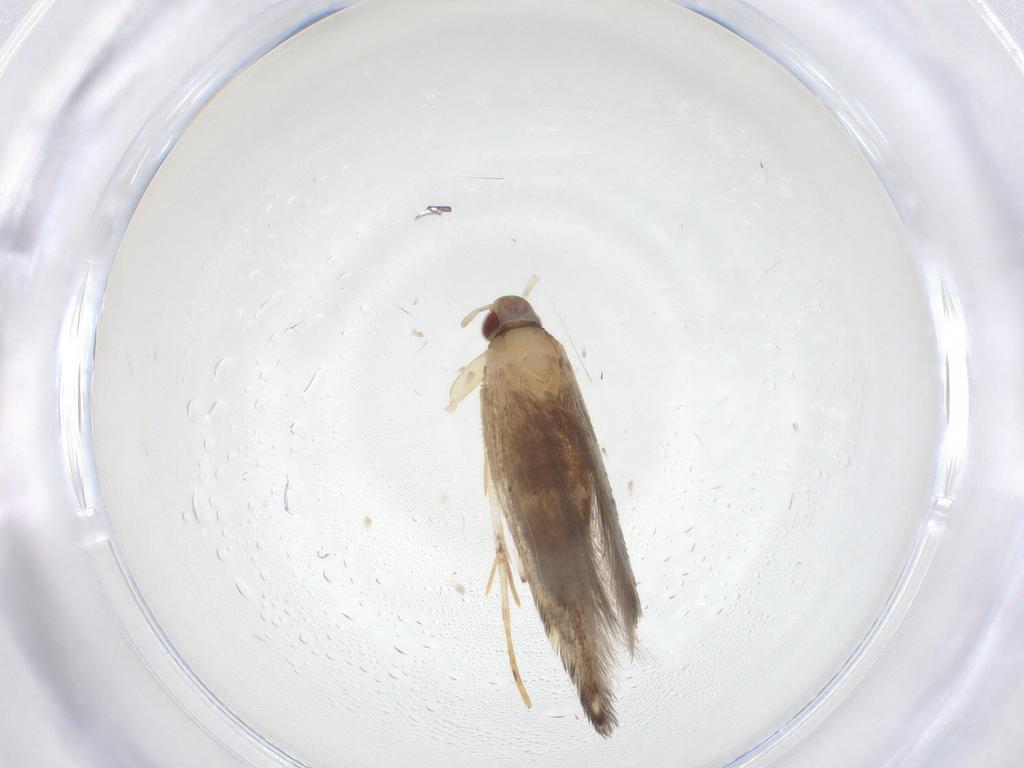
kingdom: Animalia
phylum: Arthropoda
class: Insecta
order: Lepidoptera
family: Cosmopterigidae
